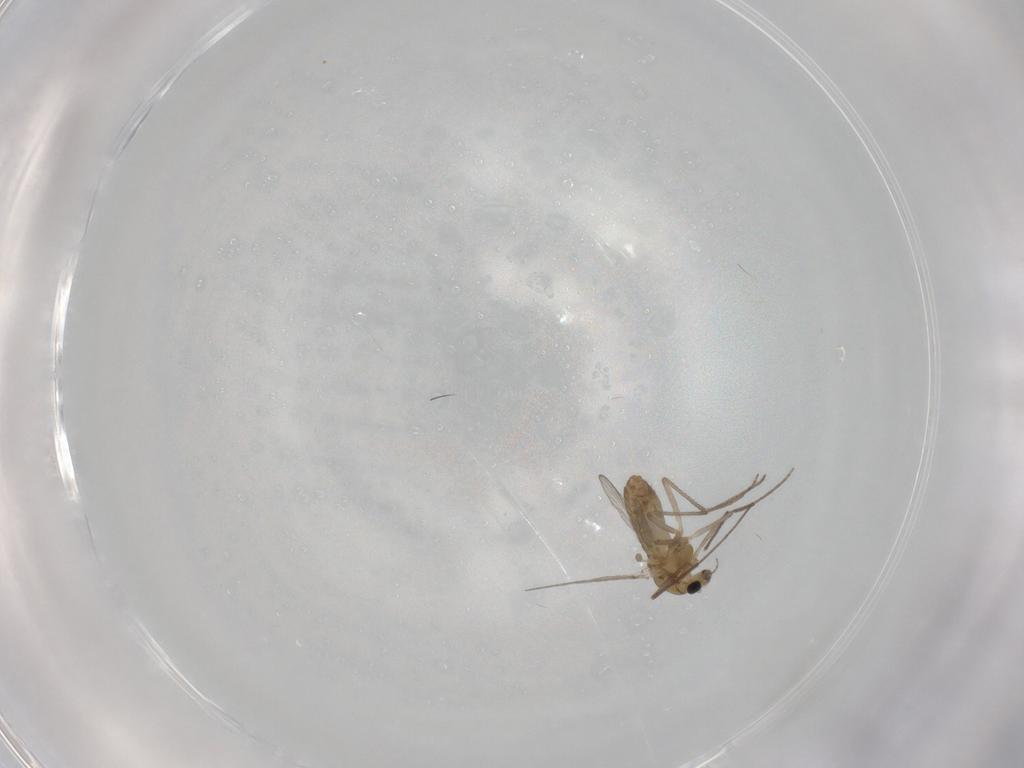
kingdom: Animalia
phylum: Arthropoda
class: Insecta
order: Diptera
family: Chironomidae
